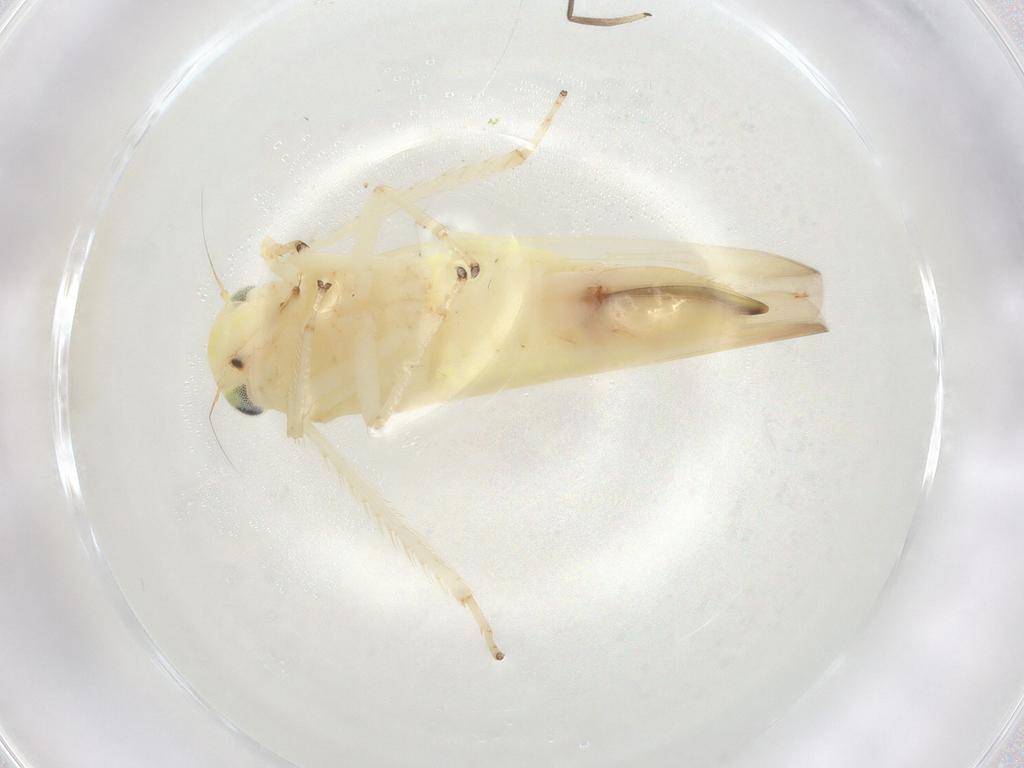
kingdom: Animalia
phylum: Arthropoda
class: Insecta
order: Hemiptera
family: Cicadellidae
